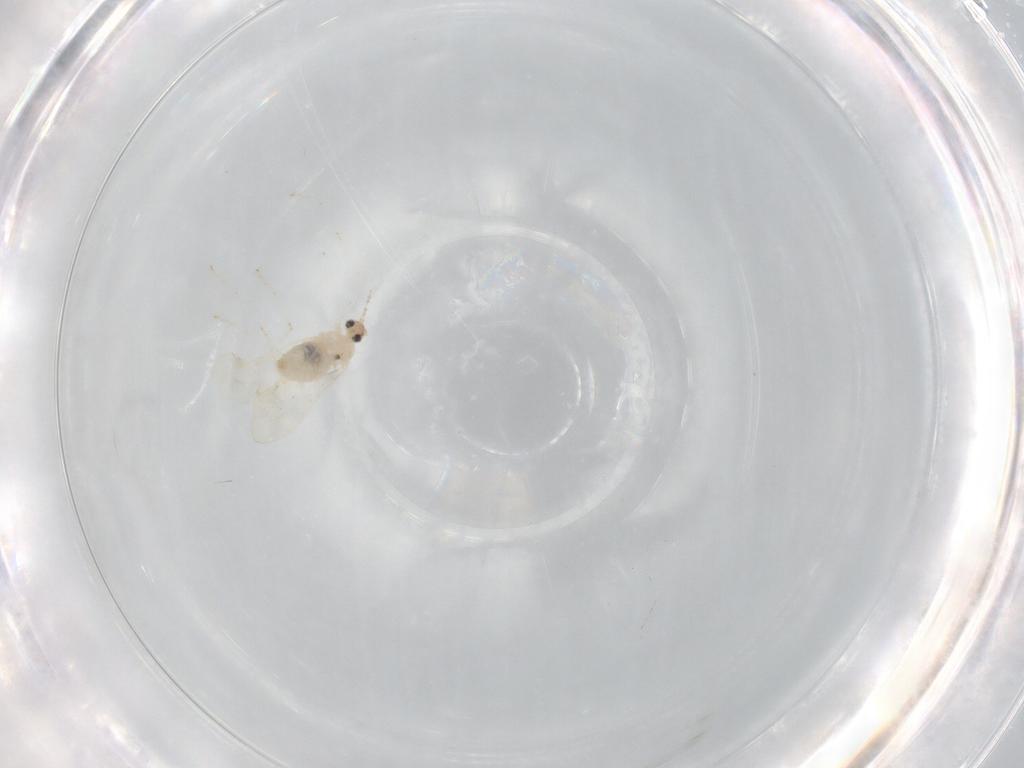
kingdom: Animalia
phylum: Arthropoda
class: Insecta
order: Diptera
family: Cecidomyiidae
